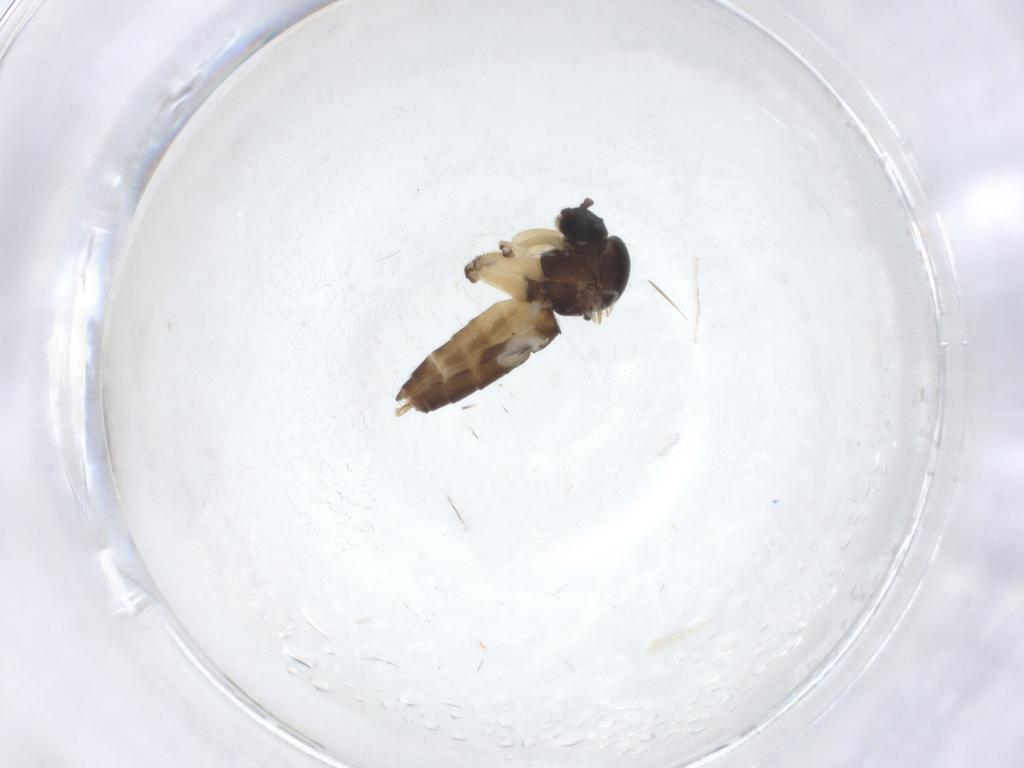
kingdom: Animalia
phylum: Arthropoda
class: Insecta
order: Diptera
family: Mycetophilidae
